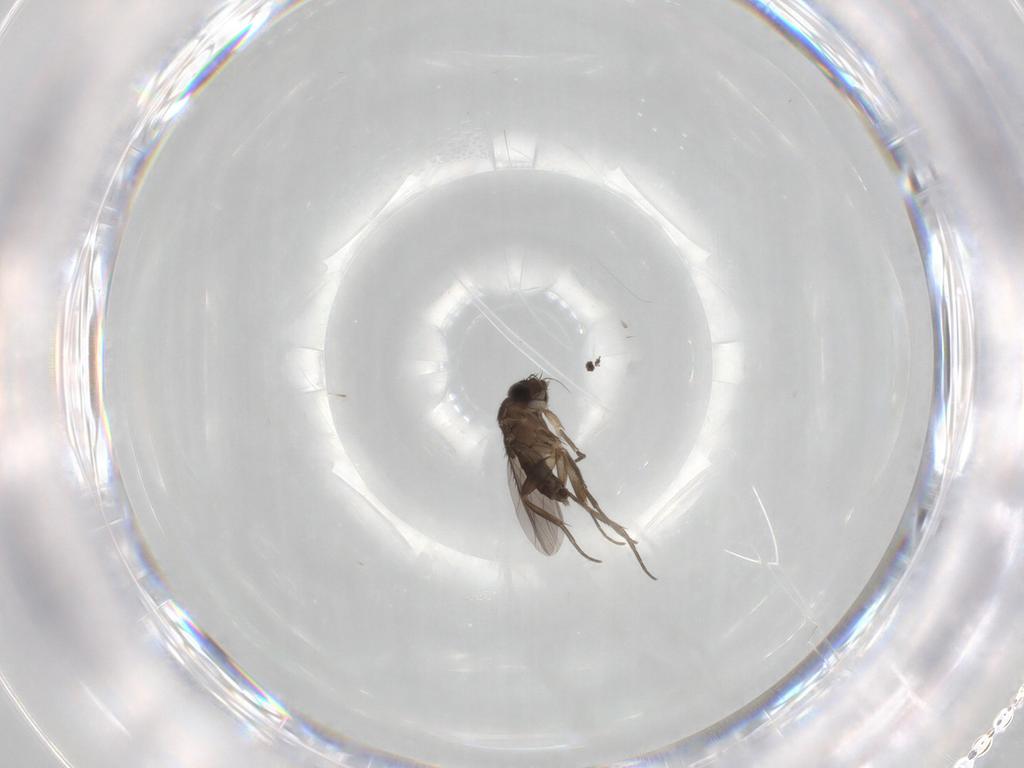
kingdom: Animalia
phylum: Arthropoda
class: Insecta
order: Diptera
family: Phoridae
